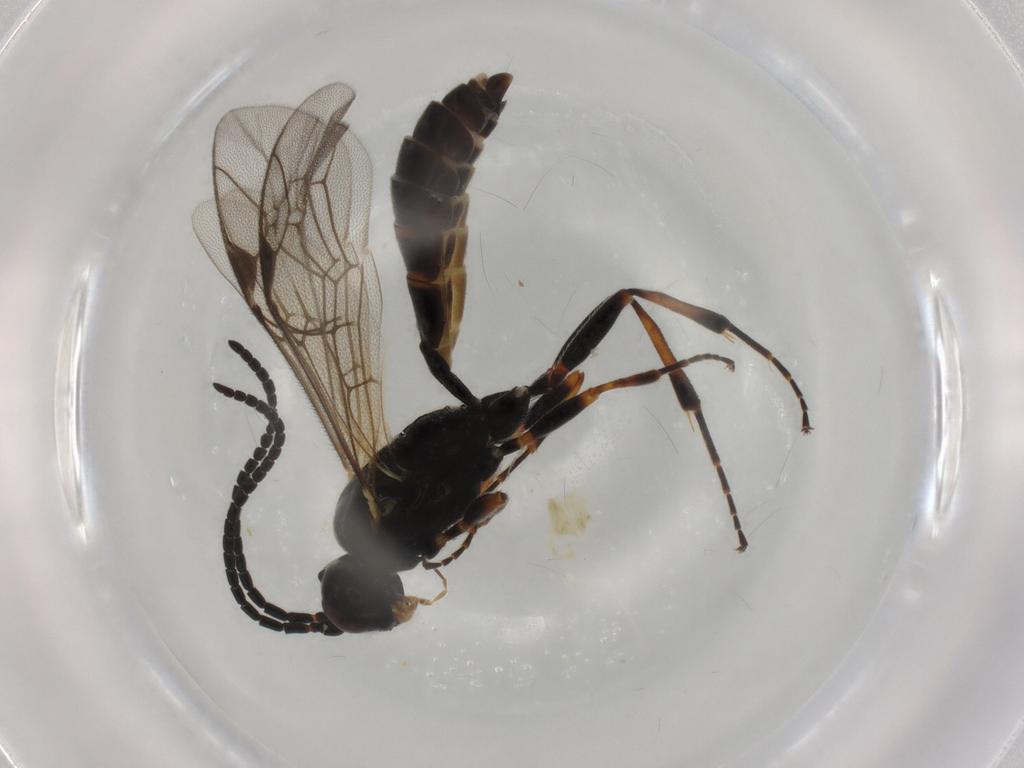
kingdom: Animalia
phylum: Arthropoda
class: Insecta
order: Hymenoptera
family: Ichneumonidae
